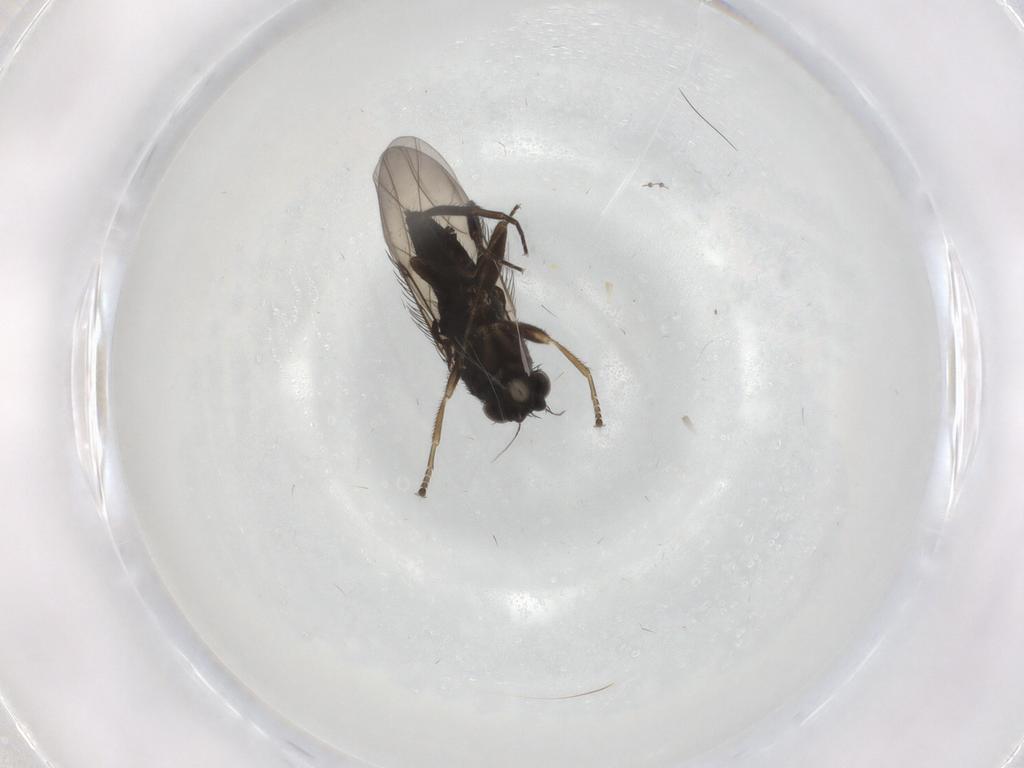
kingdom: Animalia
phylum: Arthropoda
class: Insecta
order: Diptera
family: Phoridae
